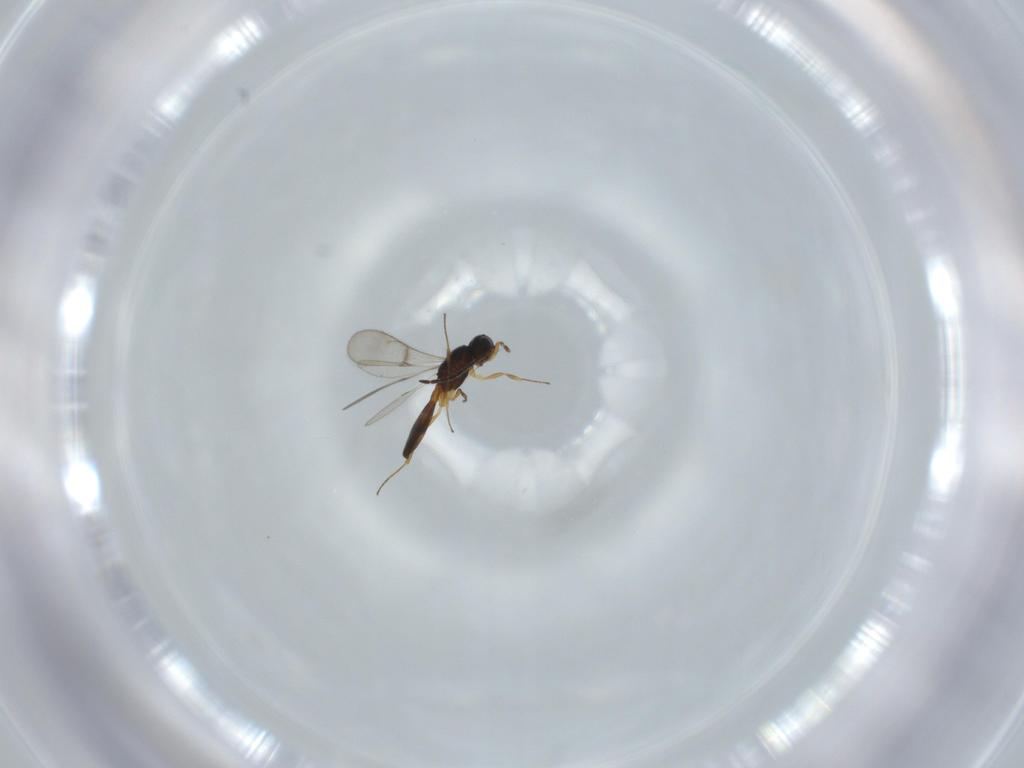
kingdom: Animalia
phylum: Arthropoda
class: Insecta
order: Hymenoptera
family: Scelionidae
